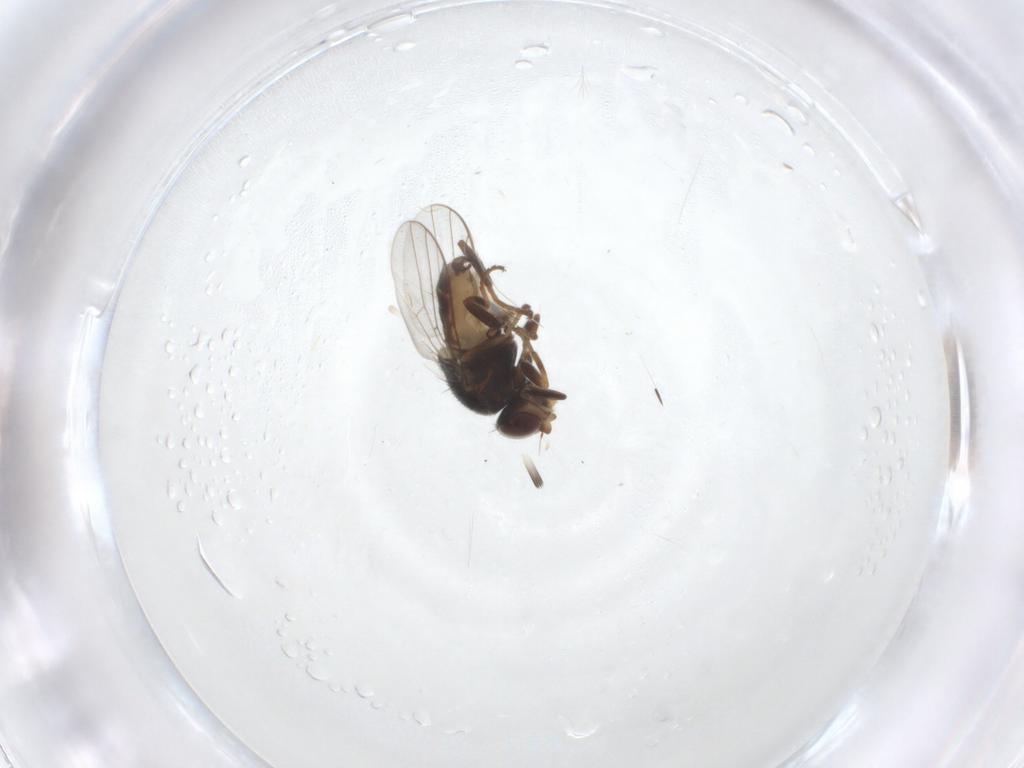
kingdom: Animalia
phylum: Arthropoda
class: Insecta
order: Diptera
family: Chloropidae
